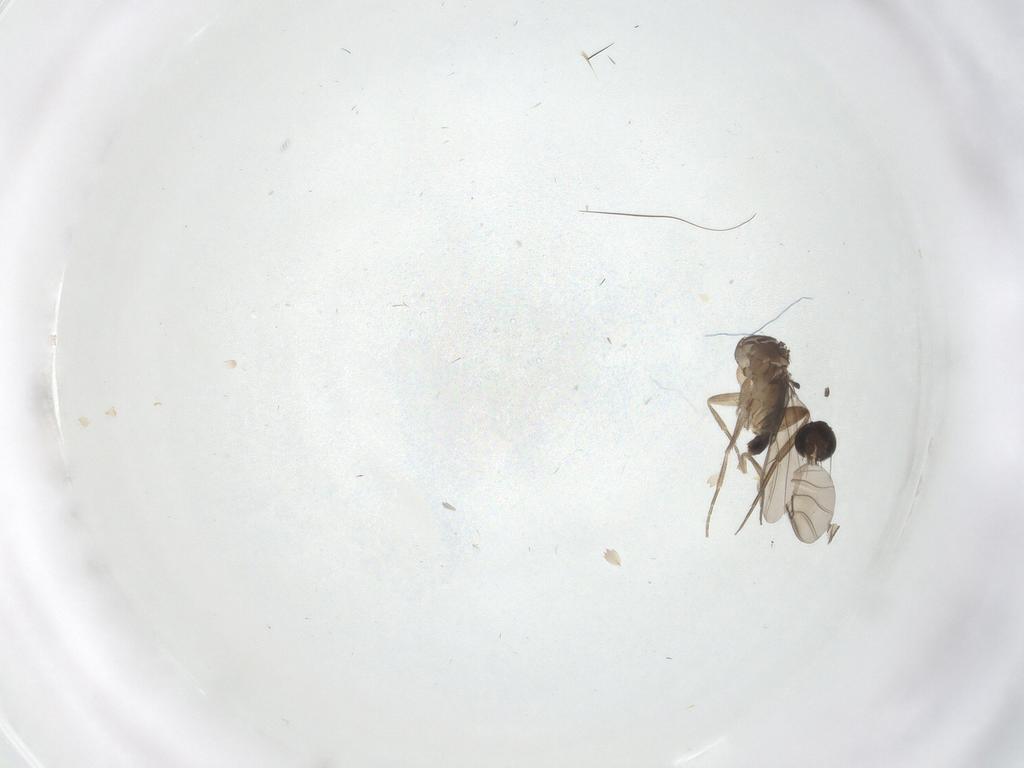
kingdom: Animalia
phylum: Arthropoda
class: Insecta
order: Diptera
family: Phoridae
